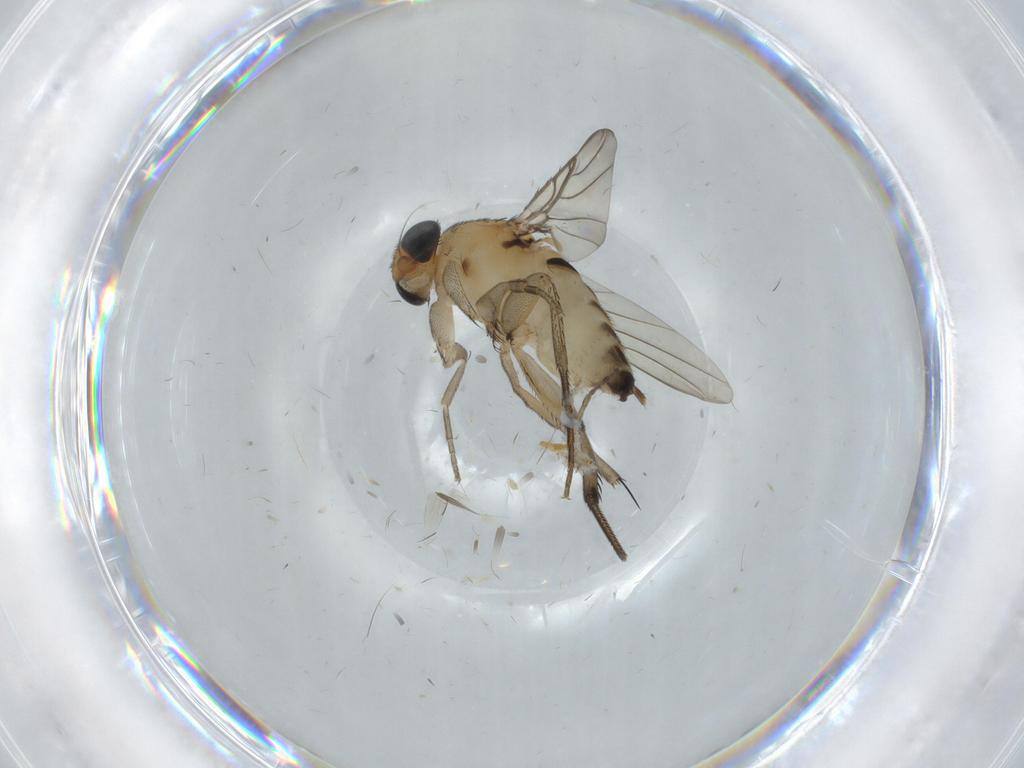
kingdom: Animalia
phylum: Arthropoda
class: Insecta
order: Diptera
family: Phoridae
